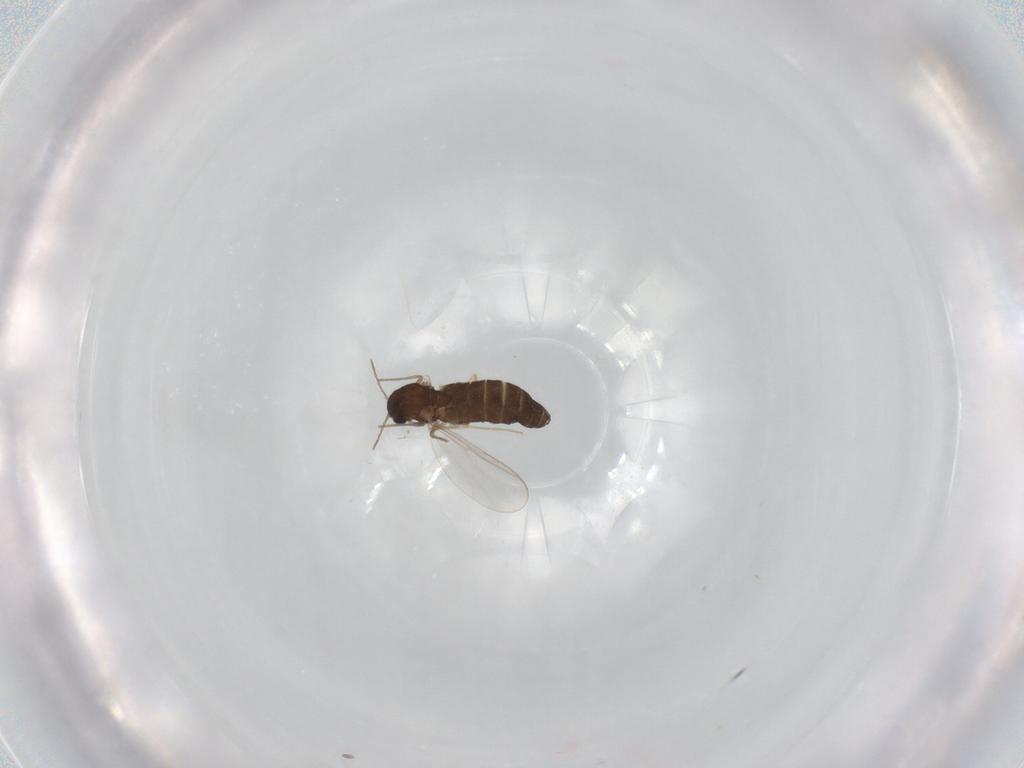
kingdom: Animalia
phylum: Arthropoda
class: Insecta
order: Diptera
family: Chironomidae
